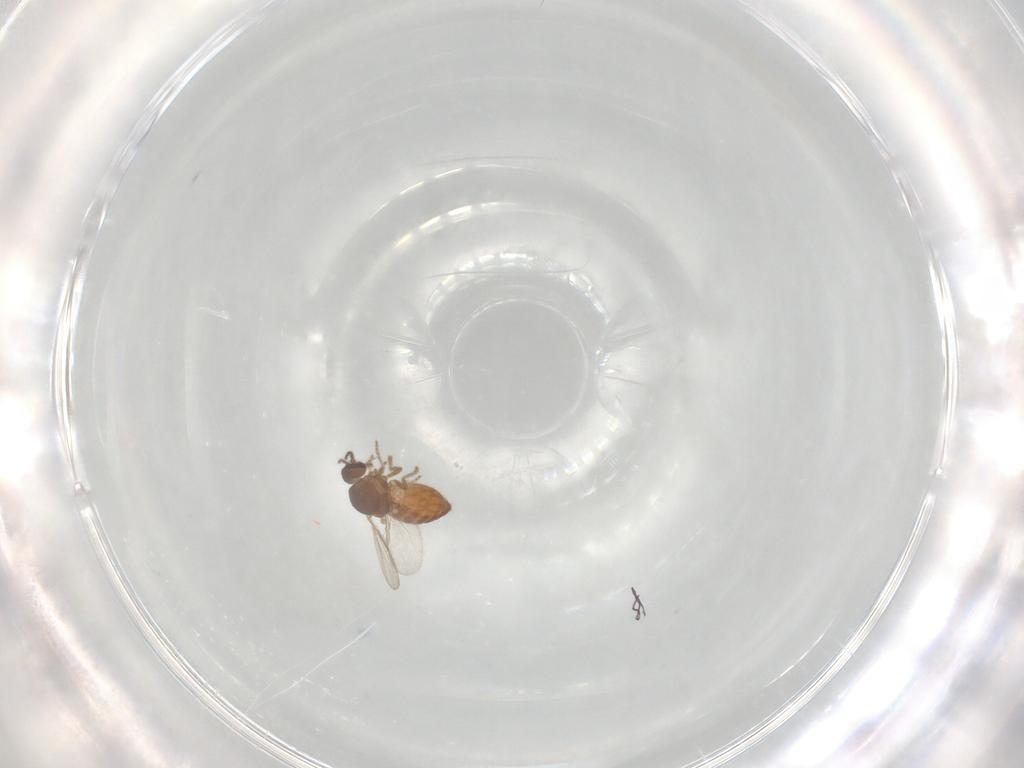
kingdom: Animalia
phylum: Arthropoda
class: Insecta
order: Diptera
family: Ceratopogonidae
